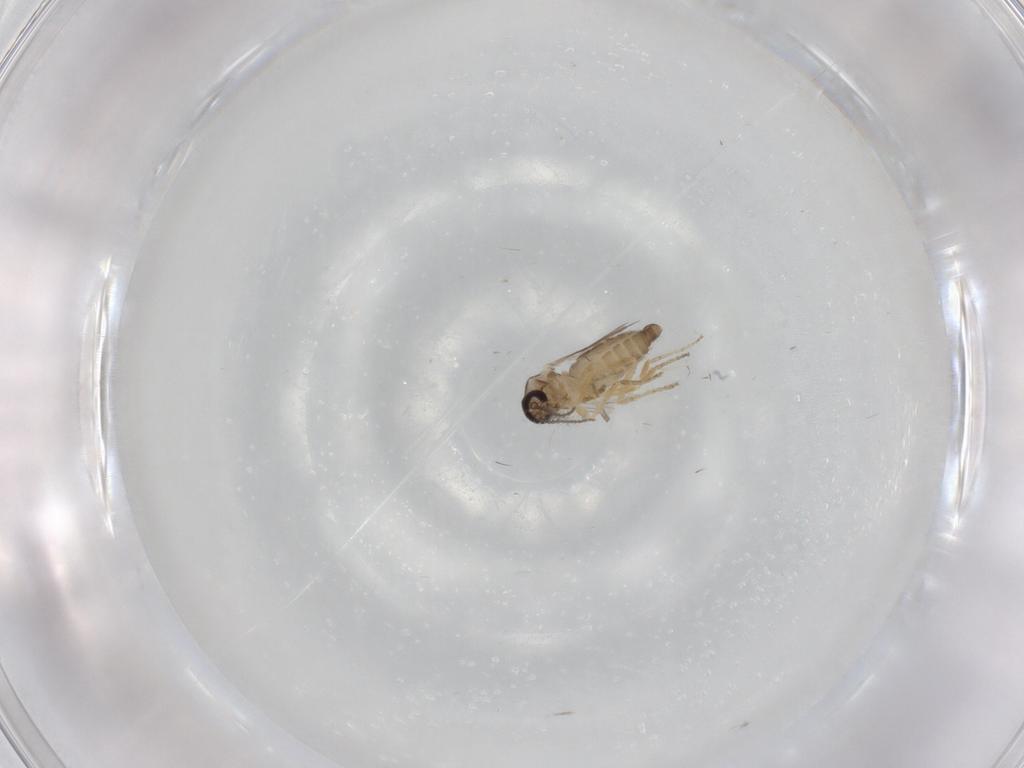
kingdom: Animalia
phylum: Arthropoda
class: Insecta
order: Diptera
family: Ceratopogonidae
